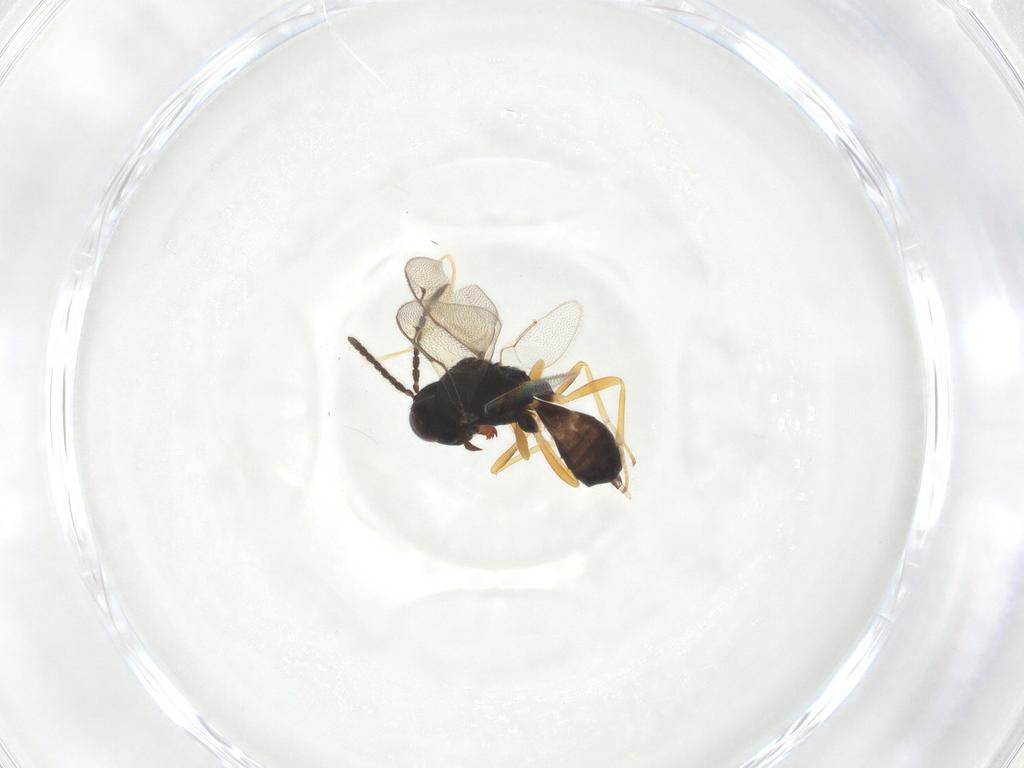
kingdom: Animalia
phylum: Arthropoda
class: Insecta
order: Hymenoptera
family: Pteromalidae
